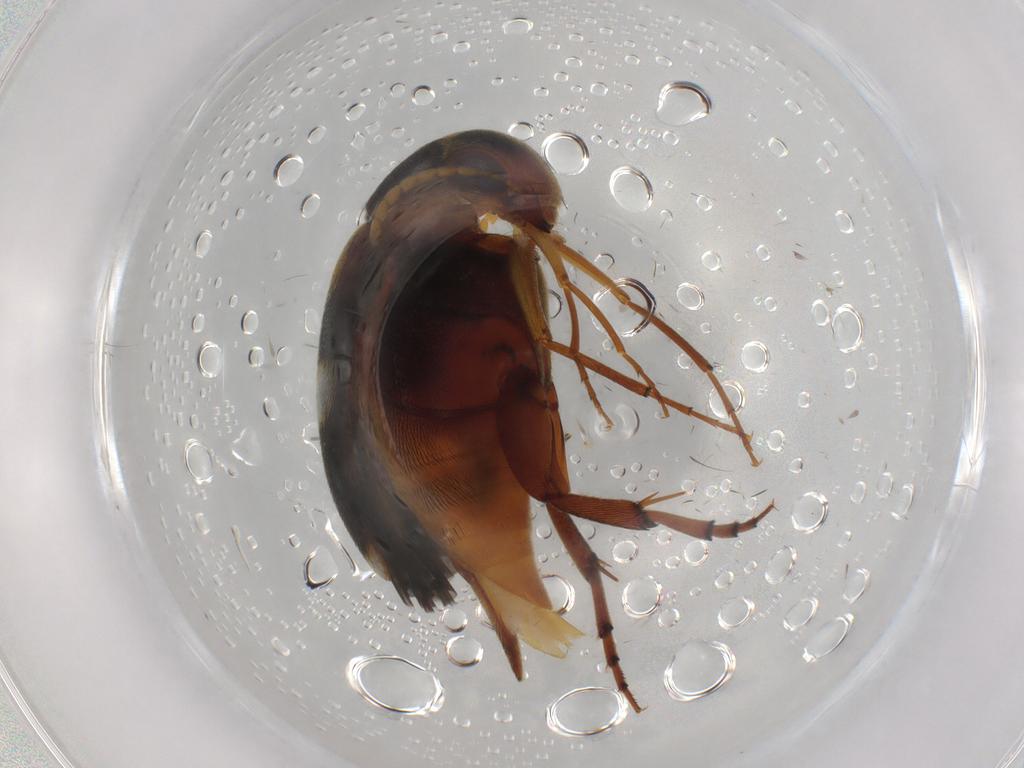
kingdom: Animalia
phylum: Arthropoda
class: Insecta
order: Coleoptera
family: Mordellidae
